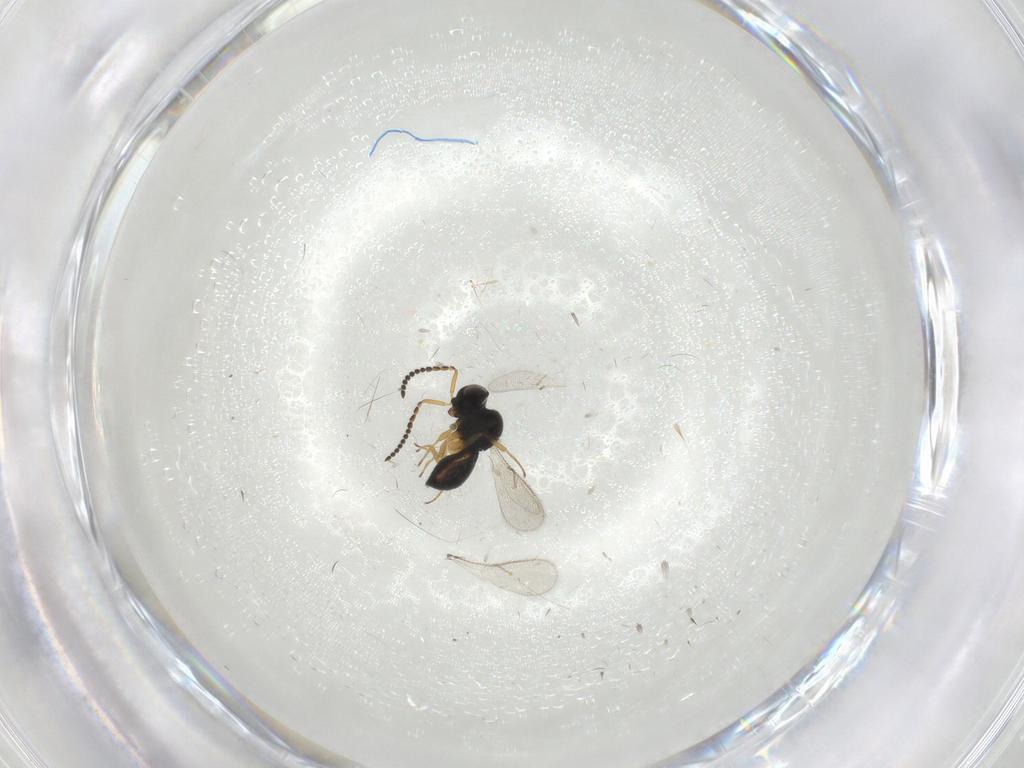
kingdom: Animalia
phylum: Arthropoda
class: Insecta
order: Hymenoptera
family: Scelionidae
